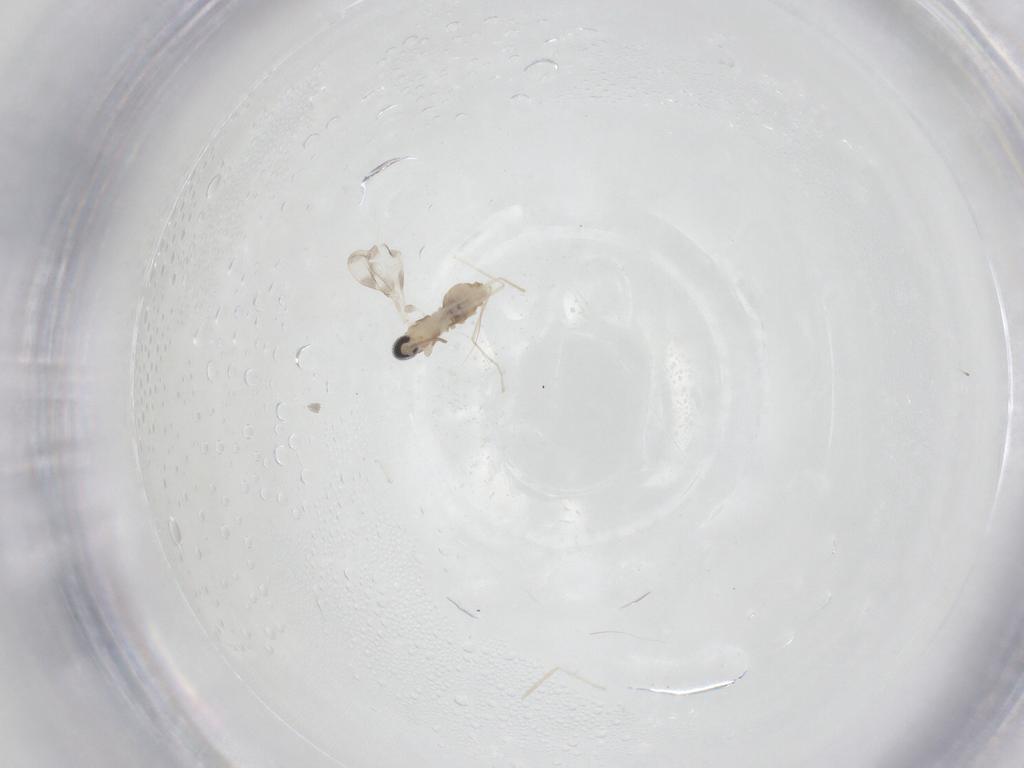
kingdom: Animalia
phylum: Arthropoda
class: Insecta
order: Diptera
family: Cecidomyiidae
